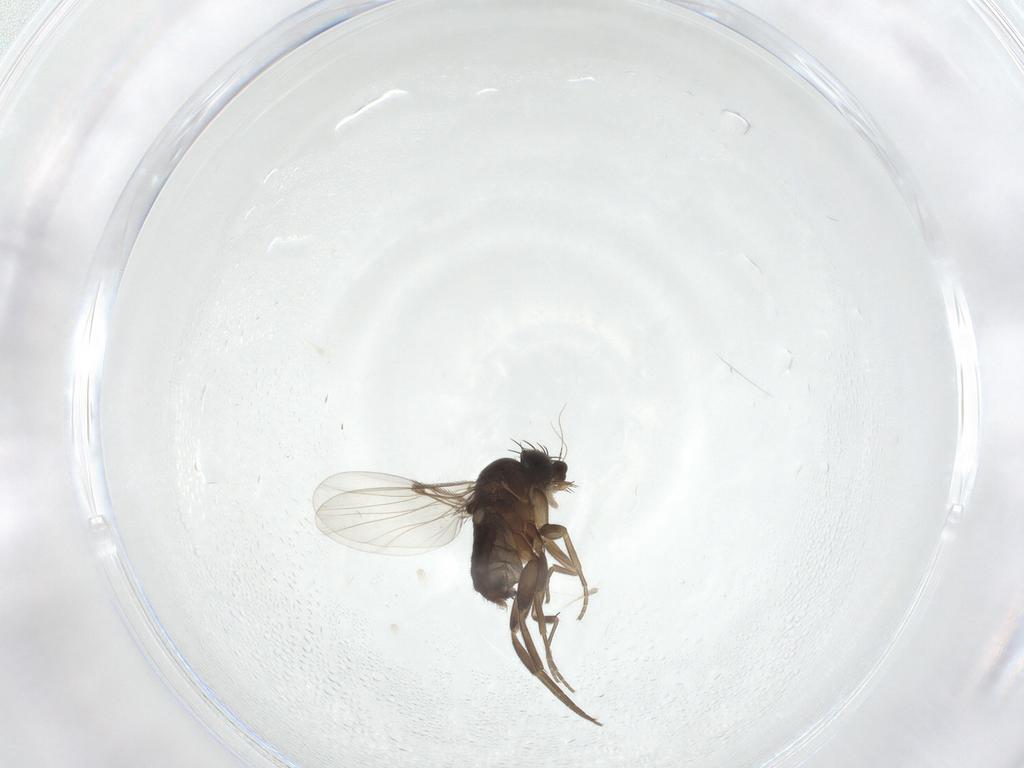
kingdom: Animalia
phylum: Arthropoda
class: Insecta
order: Diptera
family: Phoridae
